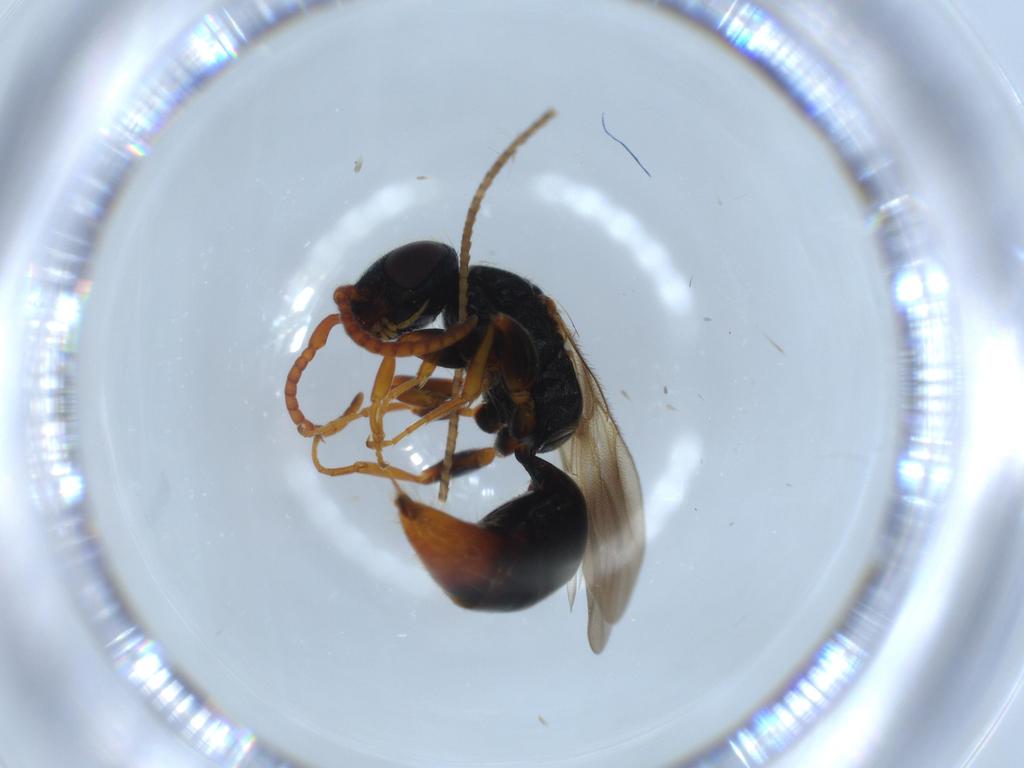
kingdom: Animalia
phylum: Arthropoda
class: Insecta
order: Hymenoptera
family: Bethylidae
